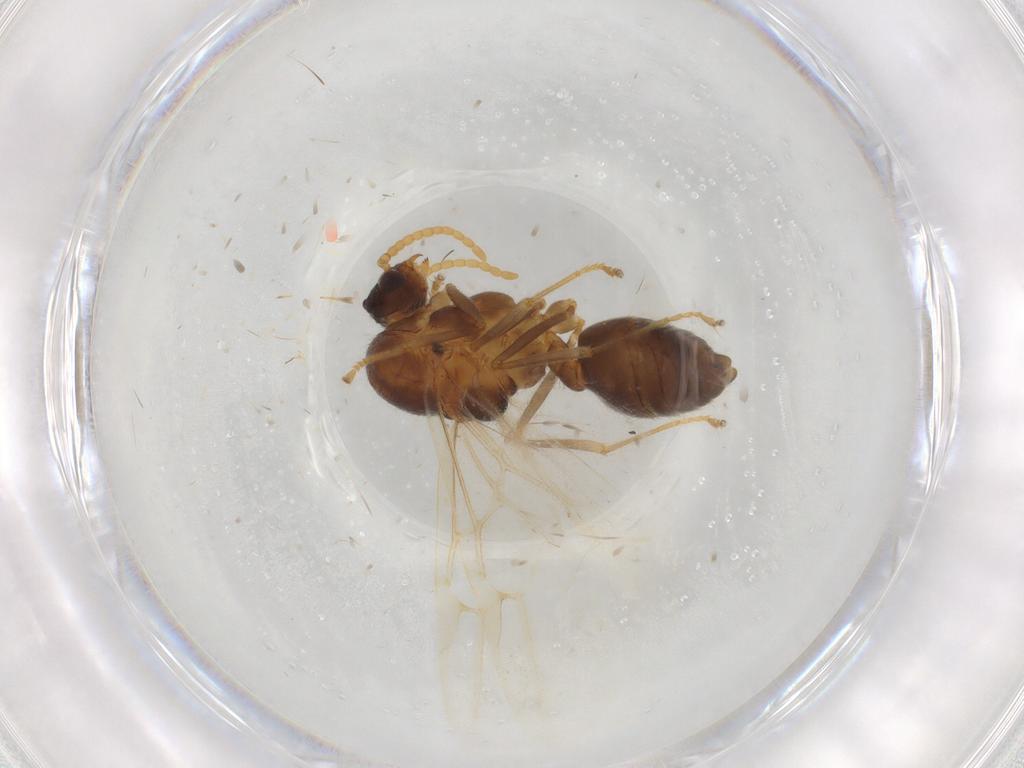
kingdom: Animalia
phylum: Arthropoda
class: Insecta
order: Hymenoptera
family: Formicidae
